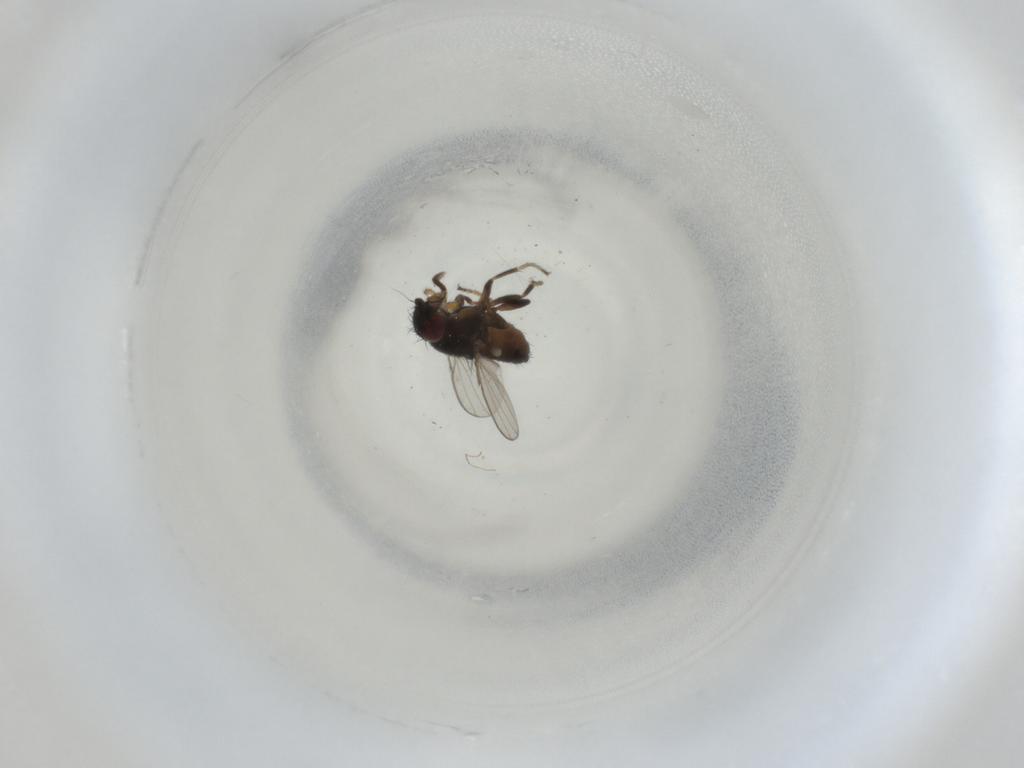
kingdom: Animalia
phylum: Arthropoda
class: Insecta
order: Diptera
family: Milichiidae
